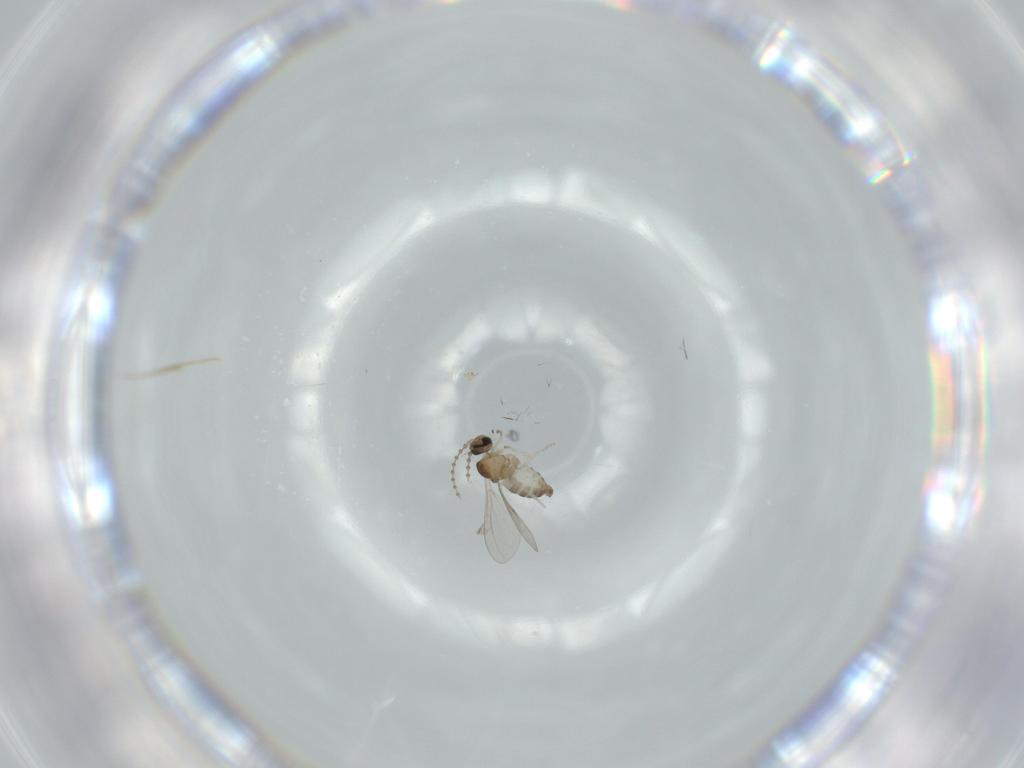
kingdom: Animalia
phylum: Arthropoda
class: Insecta
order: Diptera
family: Cecidomyiidae
